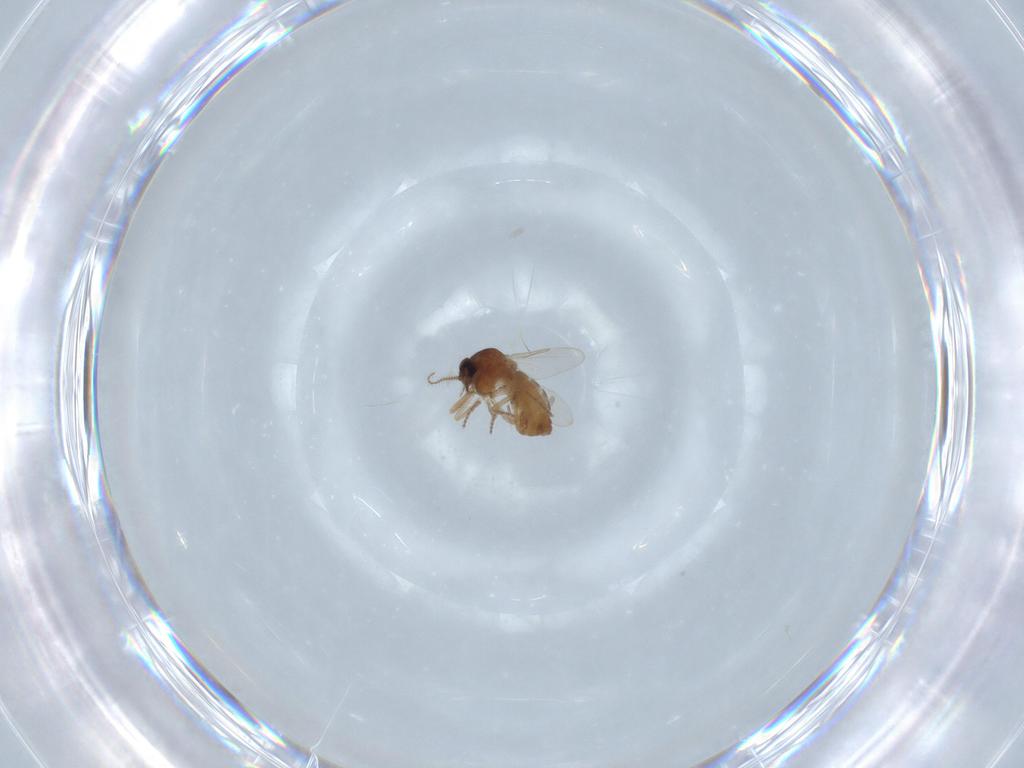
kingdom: Animalia
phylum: Arthropoda
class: Insecta
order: Diptera
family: Ceratopogonidae
